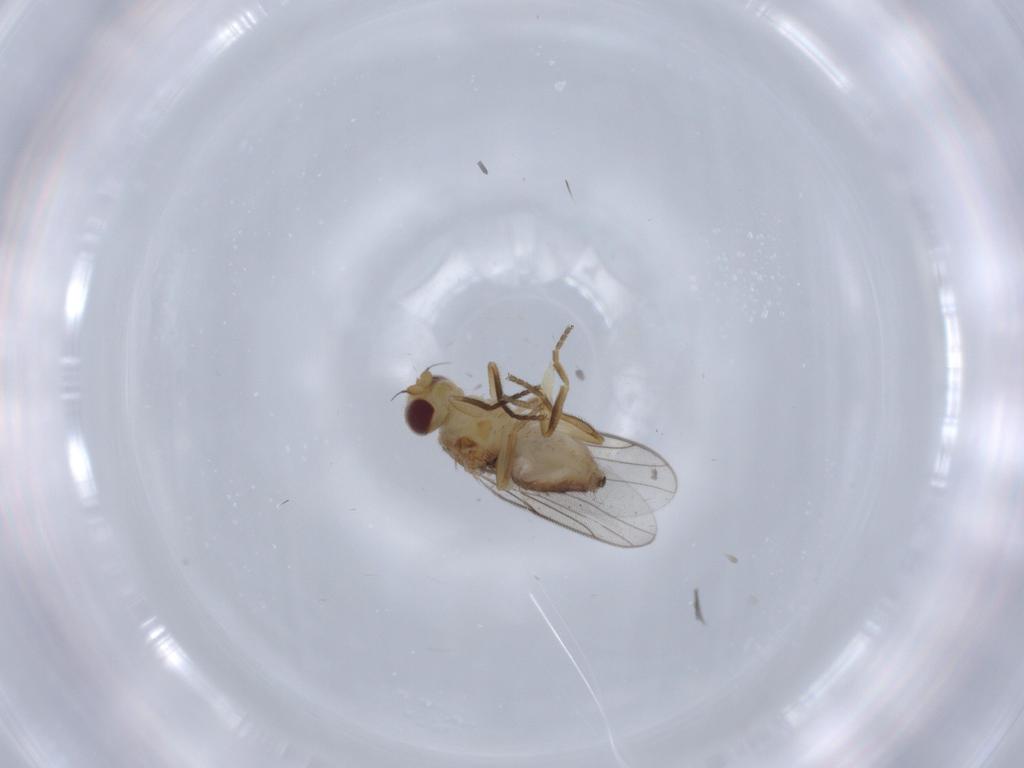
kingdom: Animalia
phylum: Arthropoda
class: Insecta
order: Diptera
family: Chloropidae
